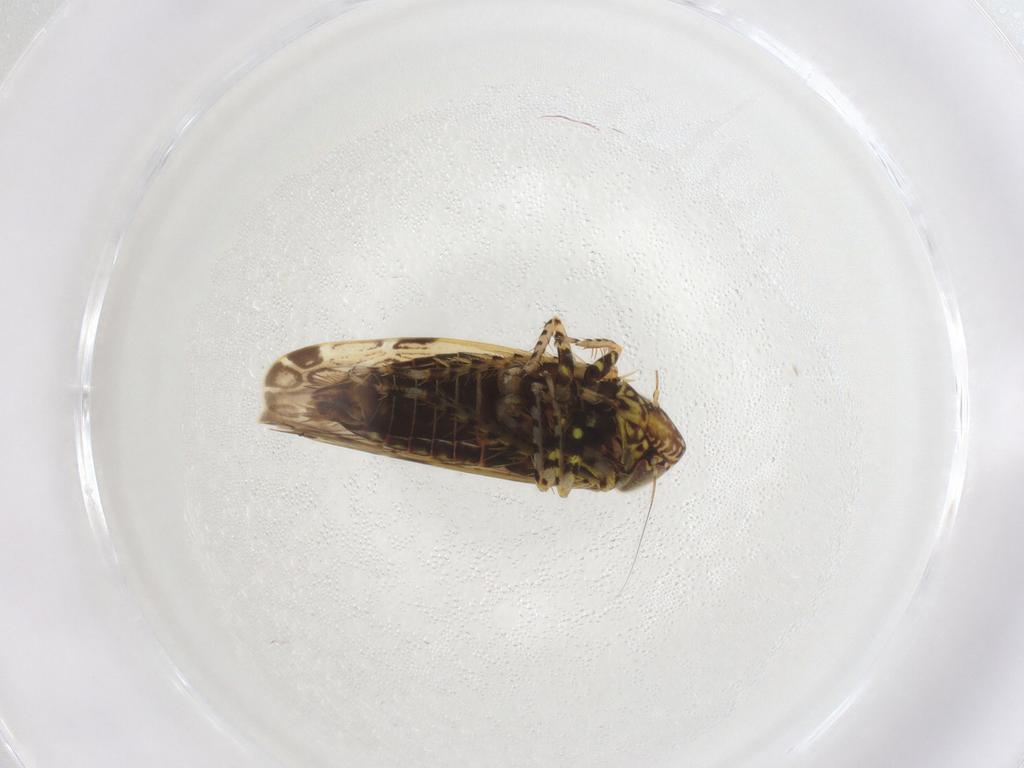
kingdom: Animalia
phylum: Arthropoda
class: Insecta
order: Hemiptera
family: Cicadellidae
